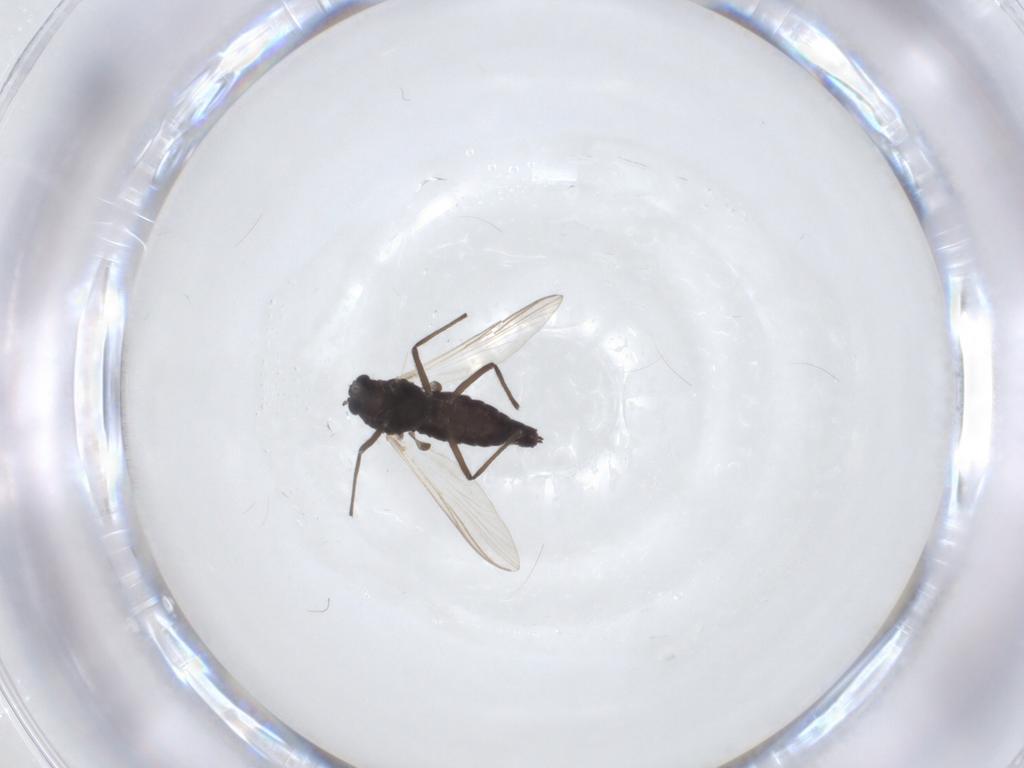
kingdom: Animalia
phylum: Arthropoda
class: Insecta
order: Diptera
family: Chironomidae
